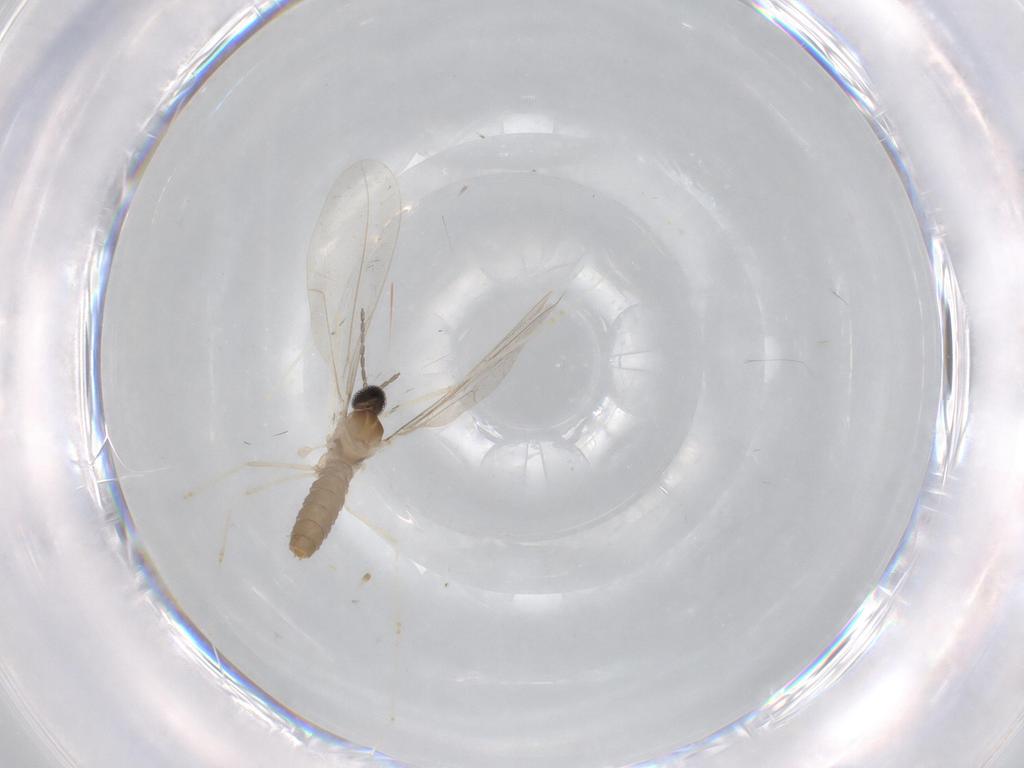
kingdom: Animalia
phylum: Arthropoda
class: Insecta
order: Diptera
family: Cecidomyiidae
